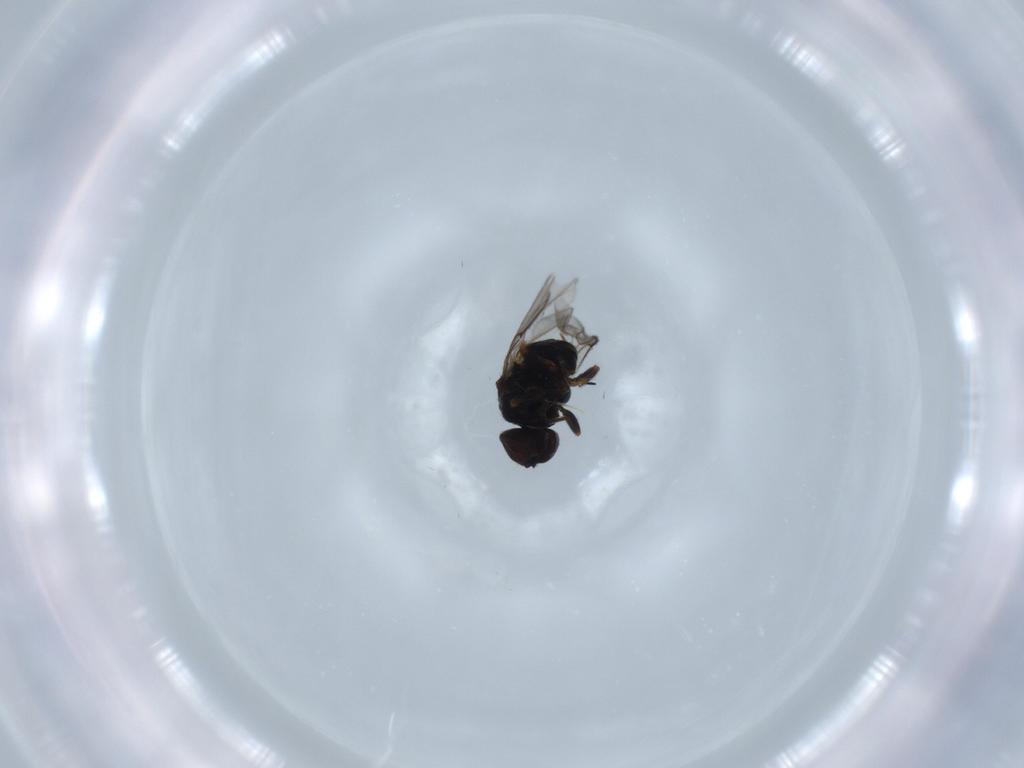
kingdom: Animalia
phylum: Arthropoda
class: Insecta
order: Diptera
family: Chloropidae
